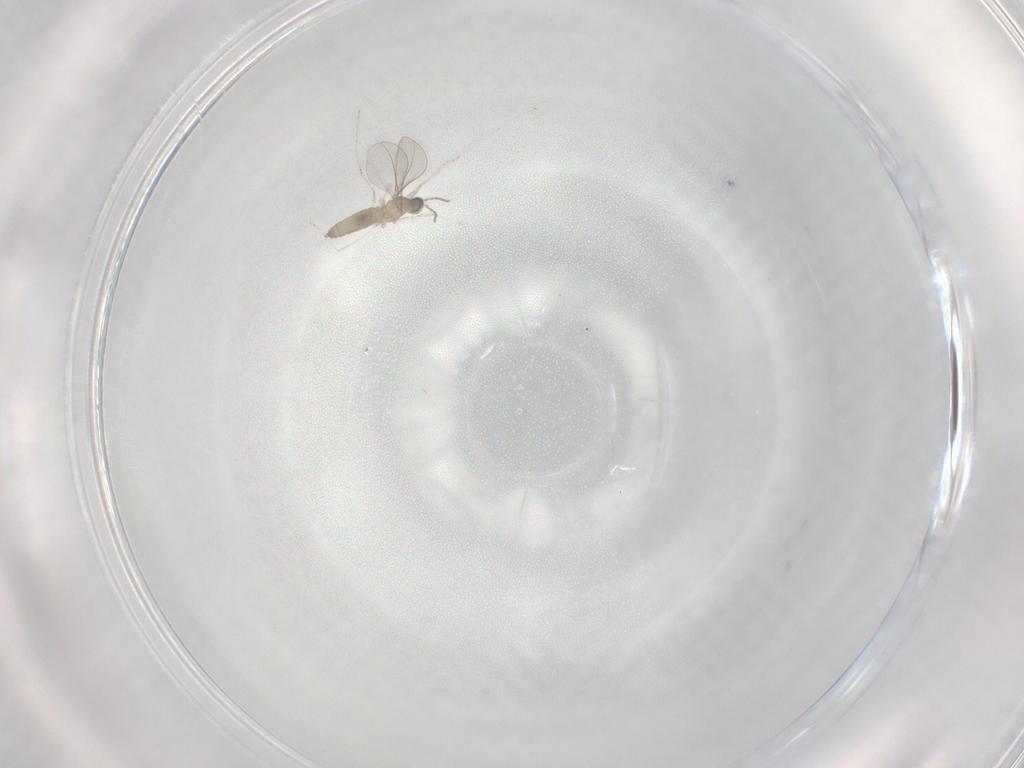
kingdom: Animalia
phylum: Arthropoda
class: Insecta
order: Diptera
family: Cecidomyiidae
